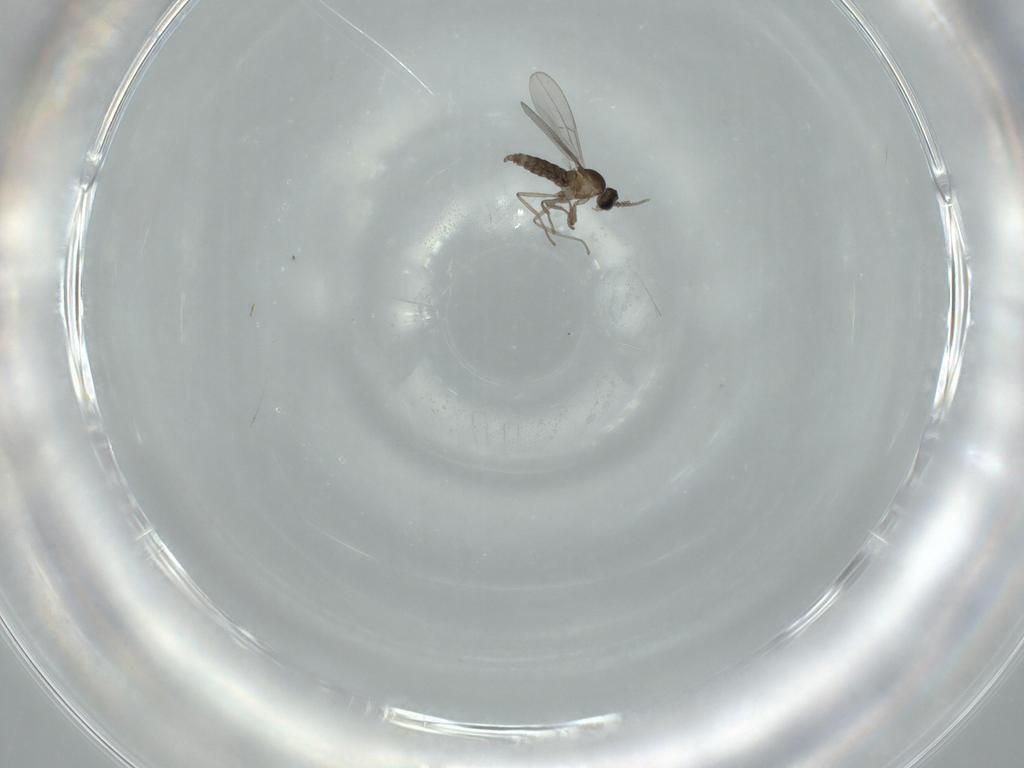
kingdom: Animalia
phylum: Arthropoda
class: Insecta
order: Diptera
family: Cecidomyiidae
